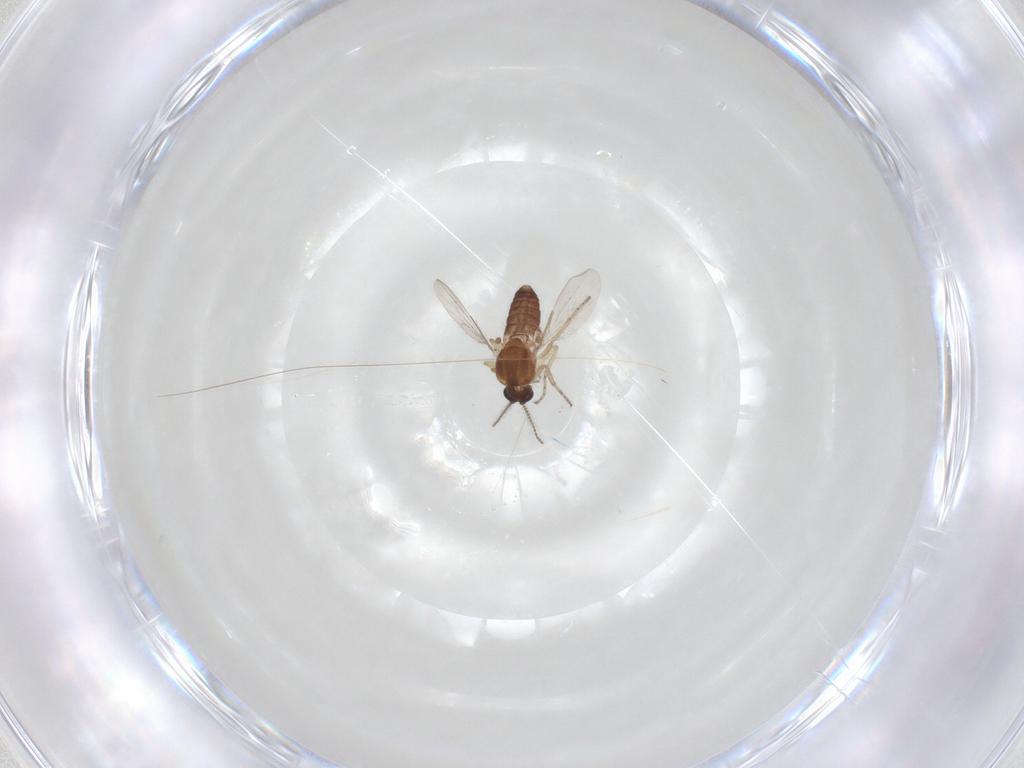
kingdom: Animalia
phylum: Arthropoda
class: Insecta
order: Diptera
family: Ceratopogonidae
